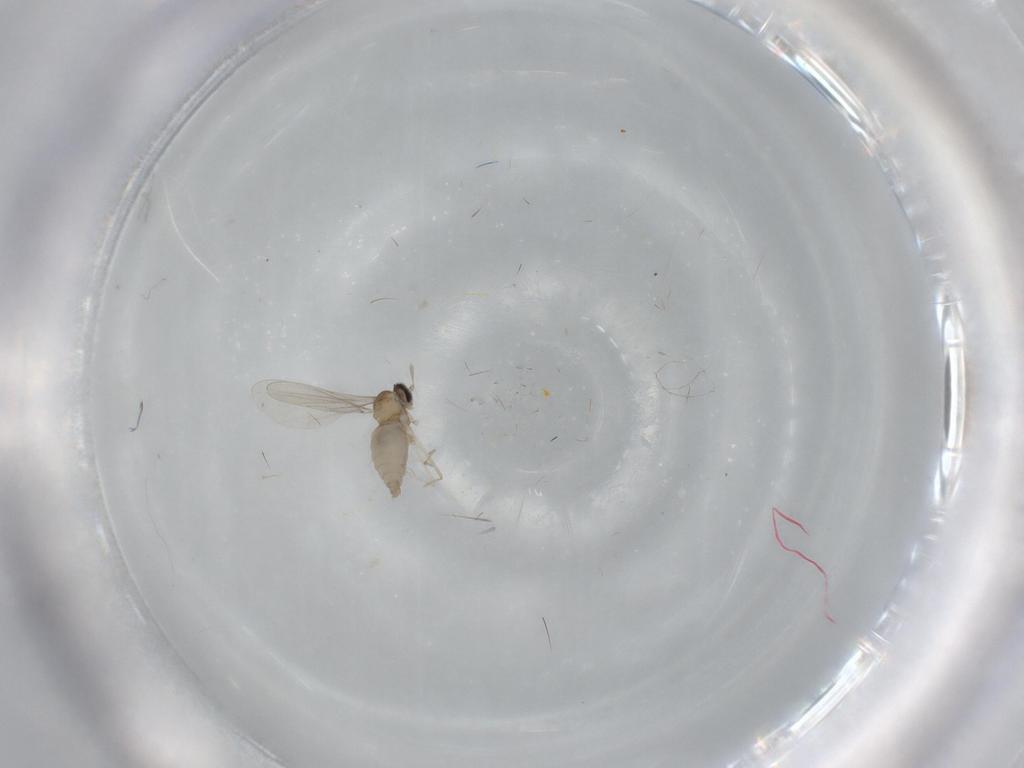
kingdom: Animalia
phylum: Arthropoda
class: Insecta
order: Diptera
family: Cecidomyiidae
